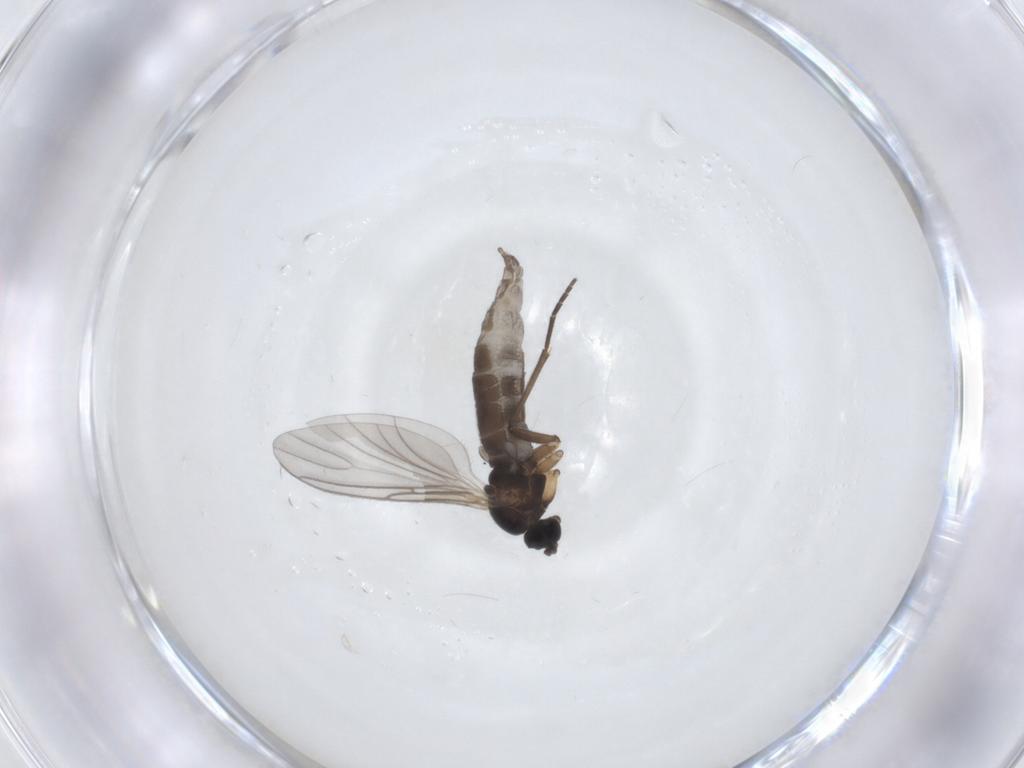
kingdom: Animalia
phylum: Arthropoda
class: Insecta
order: Diptera
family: Sciaridae
